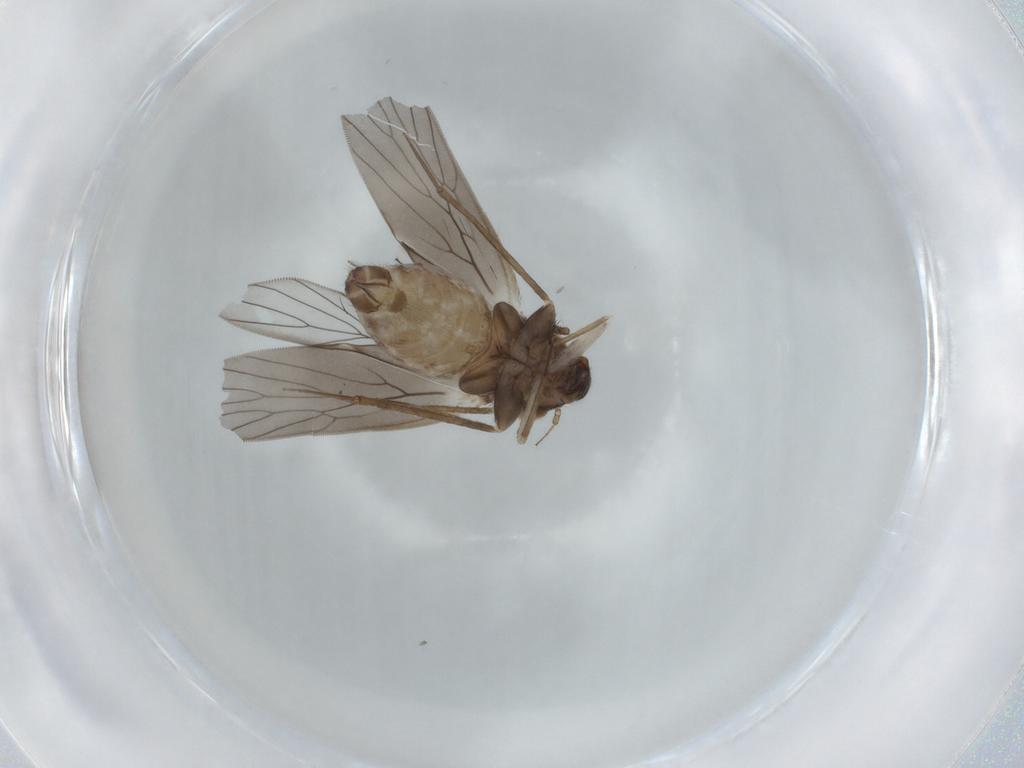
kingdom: Animalia
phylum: Arthropoda
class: Insecta
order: Psocodea
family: Lepidopsocidae
